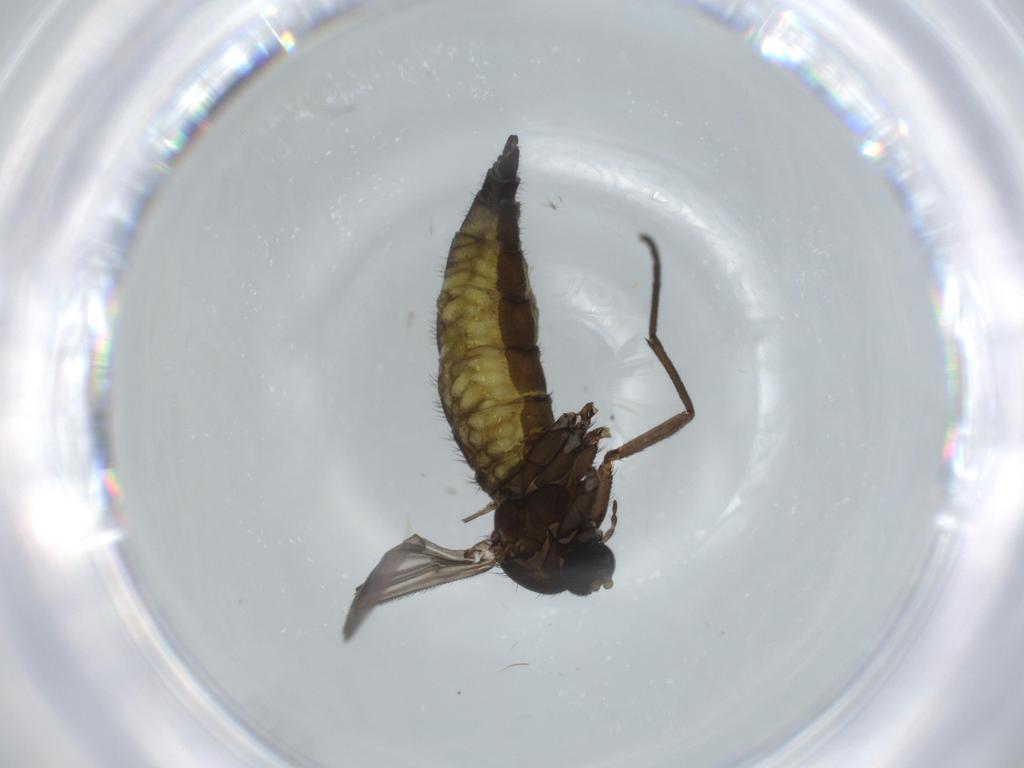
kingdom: Animalia
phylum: Arthropoda
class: Insecta
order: Diptera
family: Sciaridae
